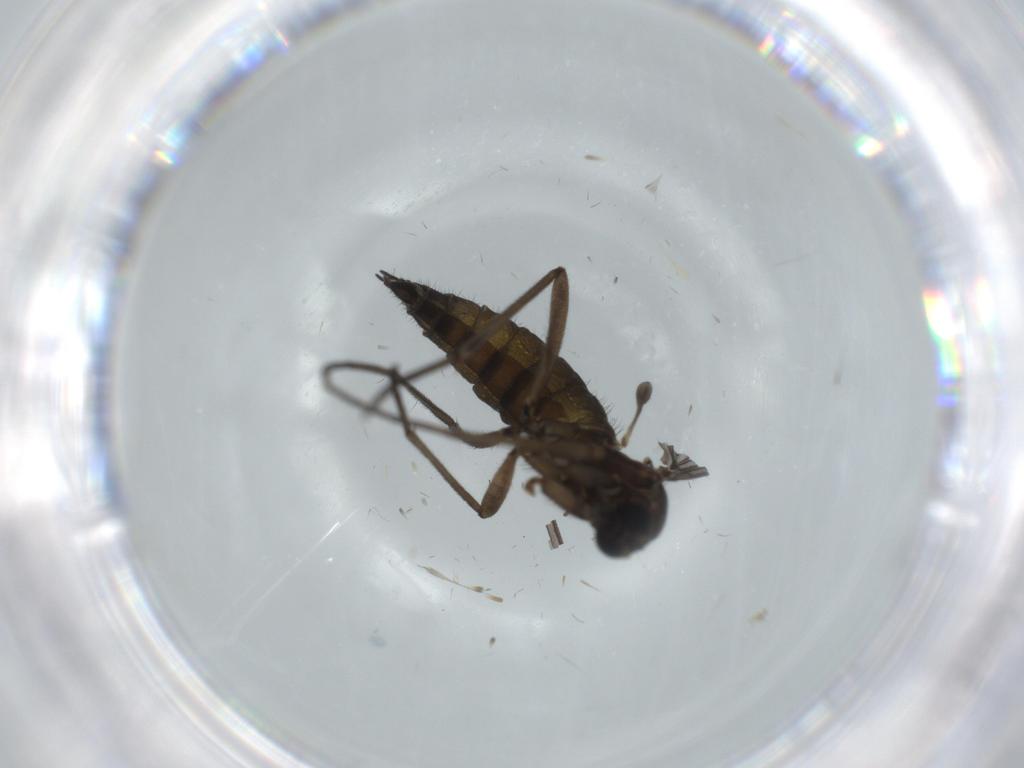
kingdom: Animalia
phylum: Arthropoda
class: Insecta
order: Diptera
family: Sciaridae
